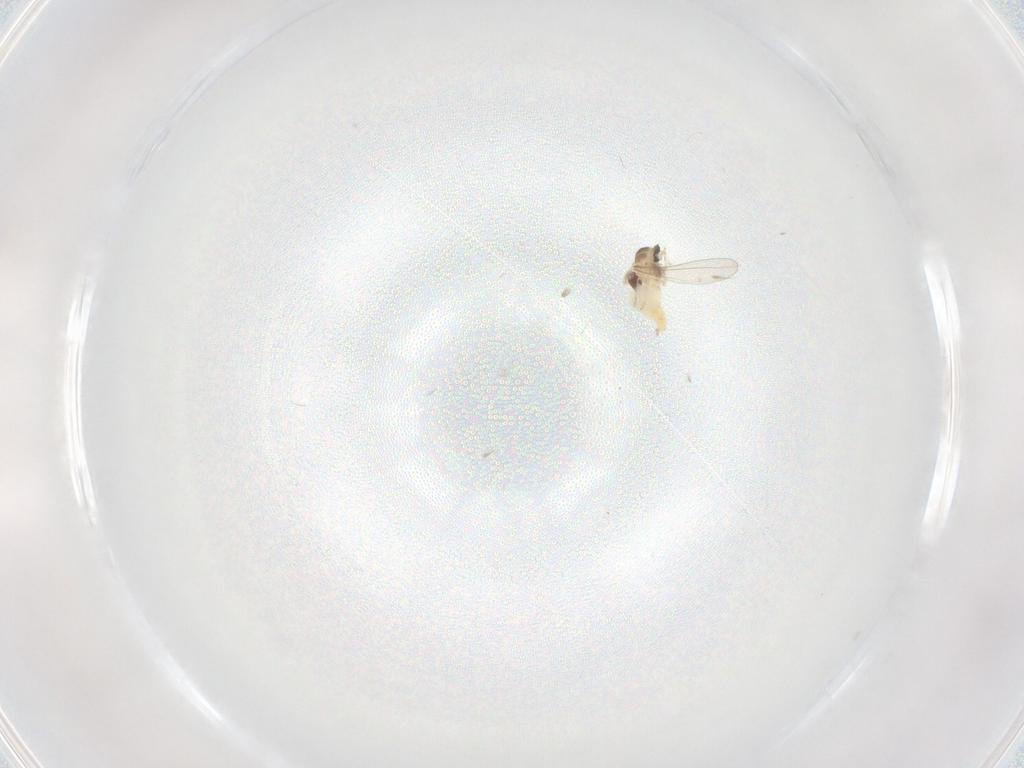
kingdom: Animalia
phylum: Arthropoda
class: Insecta
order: Diptera
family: Cecidomyiidae
